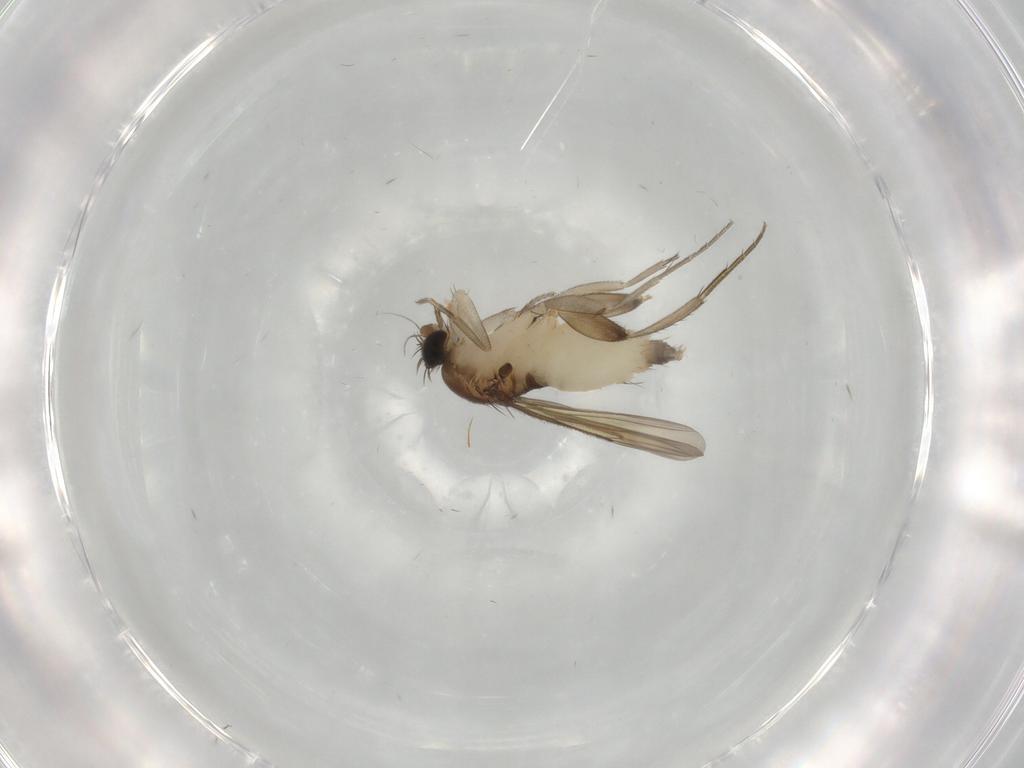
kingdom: Animalia
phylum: Arthropoda
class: Insecta
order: Diptera
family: Phoridae
